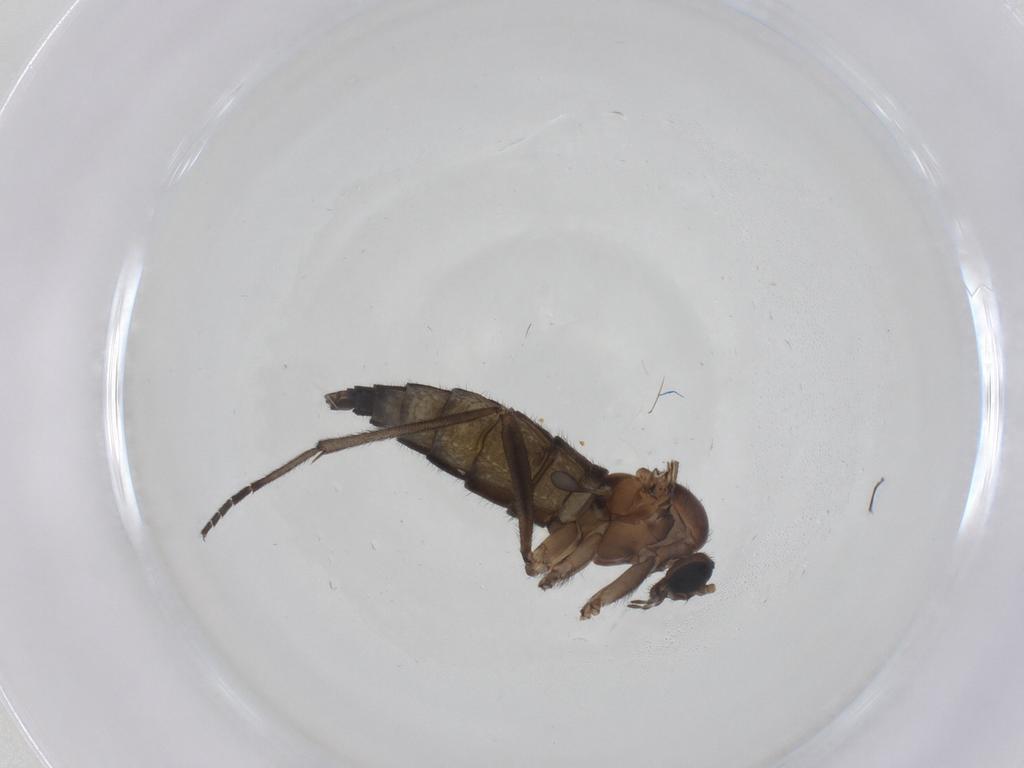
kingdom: Animalia
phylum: Arthropoda
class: Insecta
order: Diptera
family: Sciaridae
